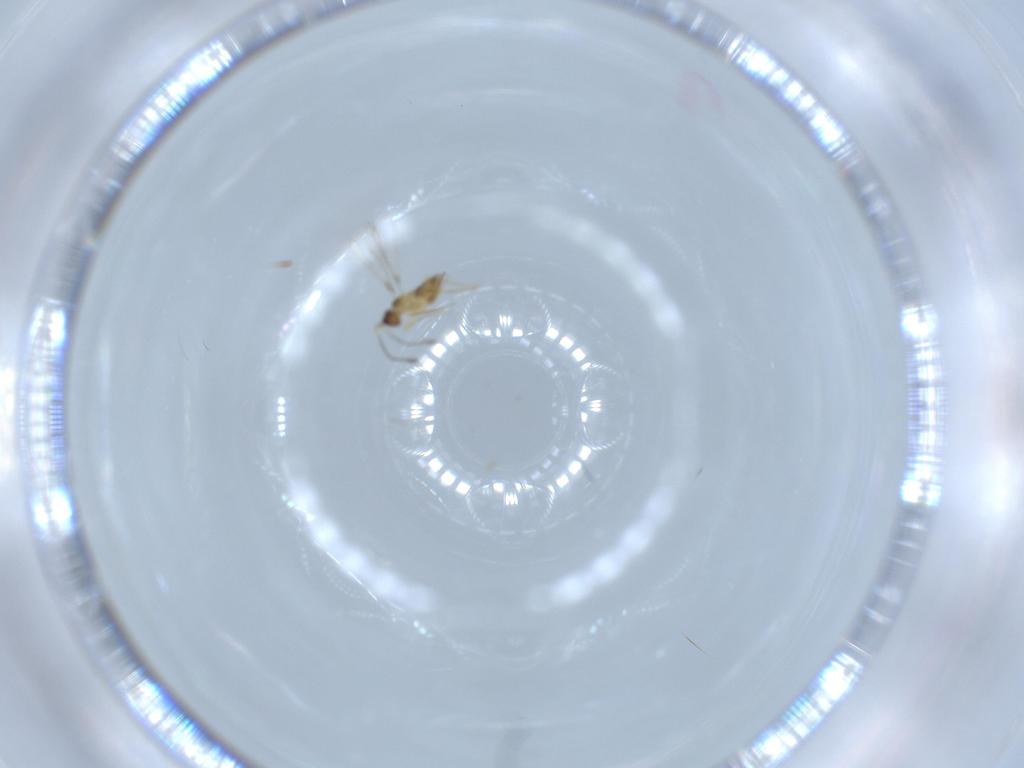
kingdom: Animalia
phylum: Arthropoda
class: Insecta
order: Hymenoptera
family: Mymaridae
